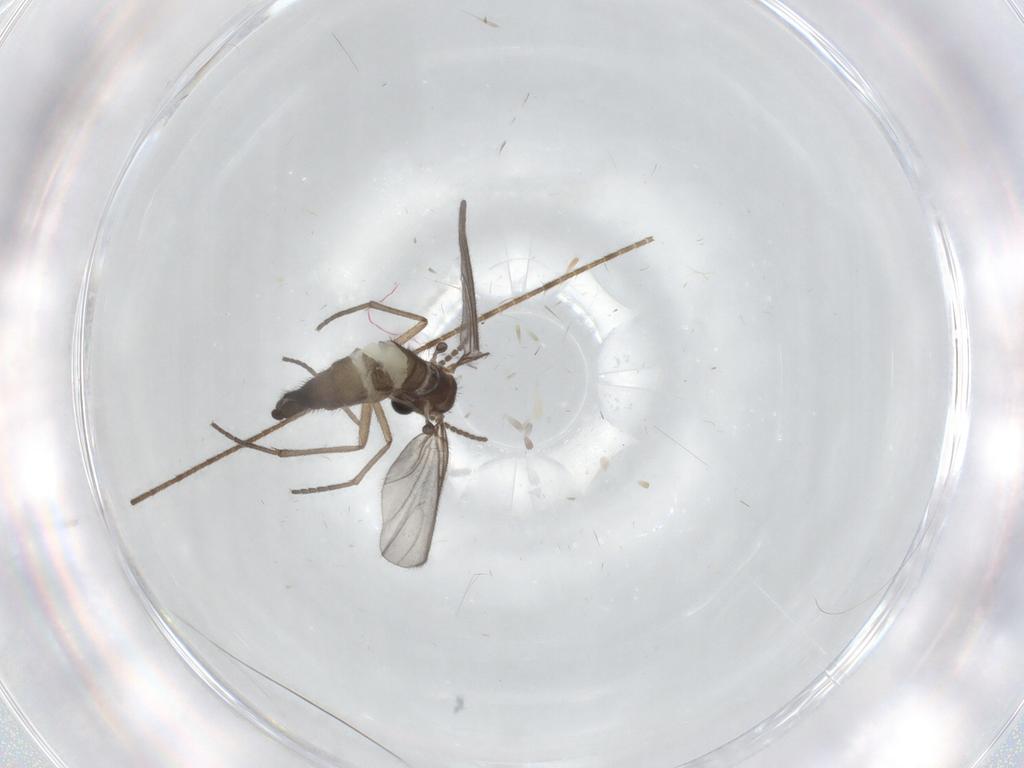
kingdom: Animalia
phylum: Arthropoda
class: Insecta
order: Diptera
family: Sciaridae
